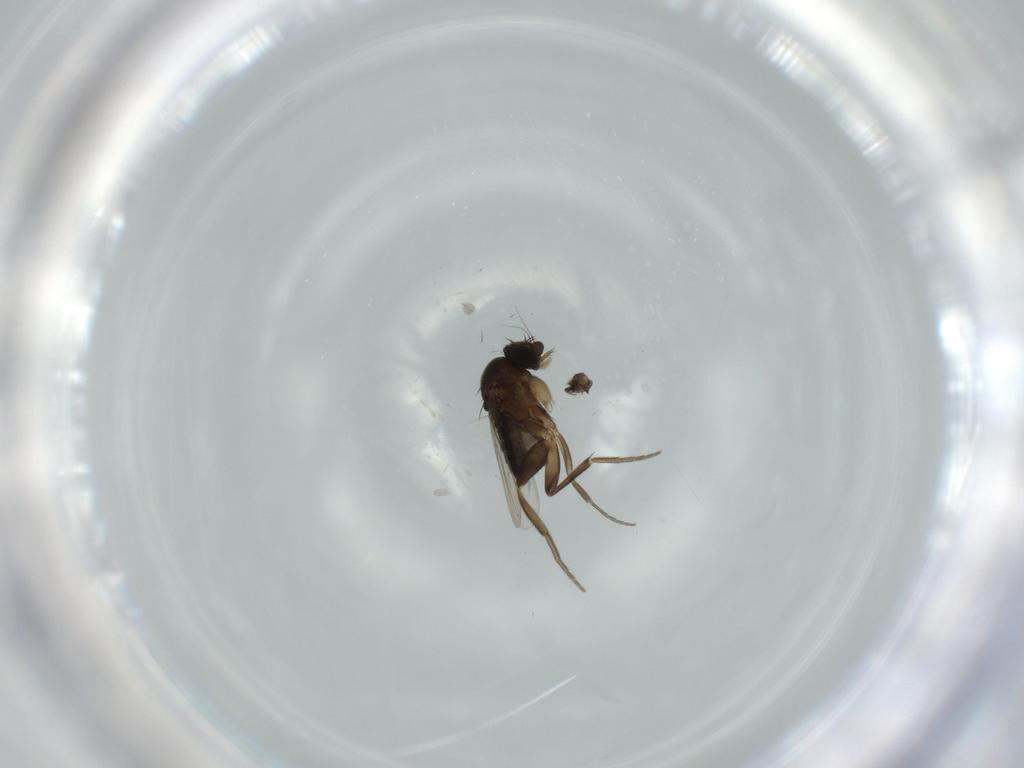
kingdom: Animalia
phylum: Arthropoda
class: Insecta
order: Diptera
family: Phoridae
